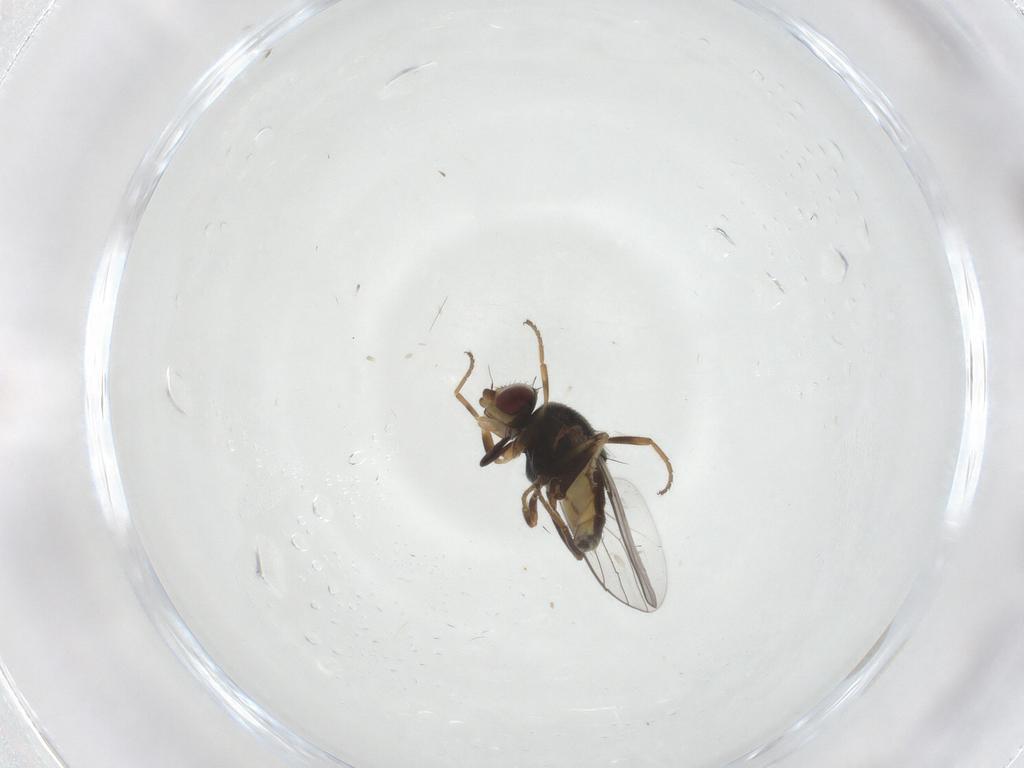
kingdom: Animalia
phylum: Arthropoda
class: Insecta
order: Diptera
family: Chloropidae
